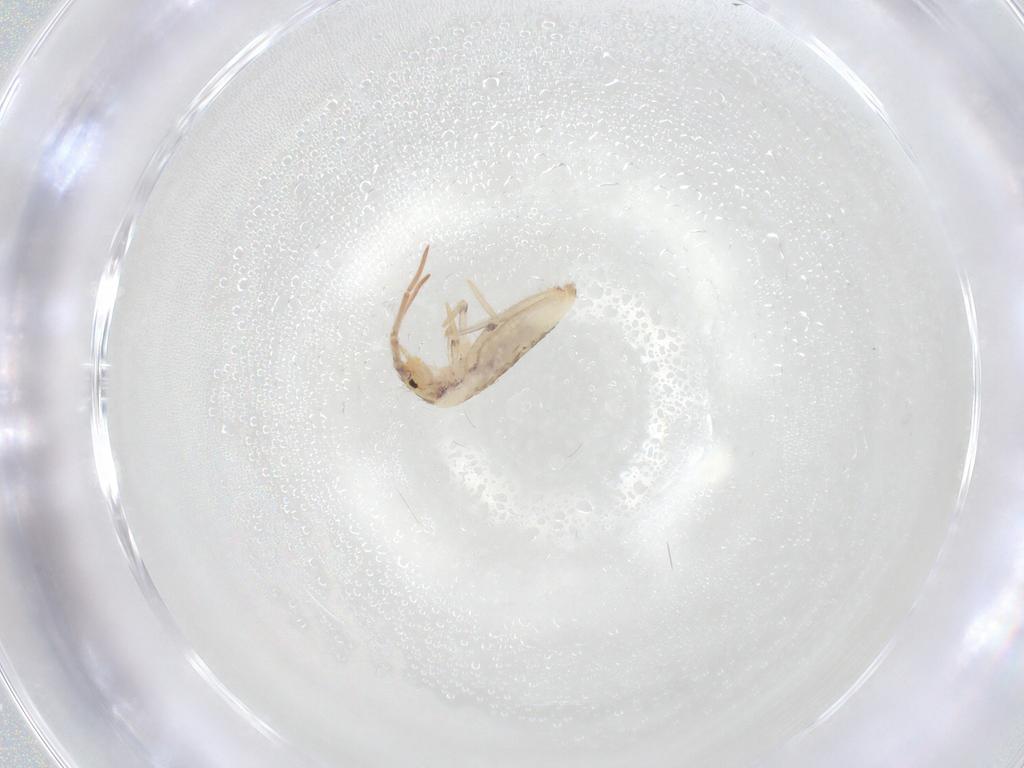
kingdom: Animalia
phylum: Arthropoda
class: Collembola
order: Entomobryomorpha
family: Entomobryidae
